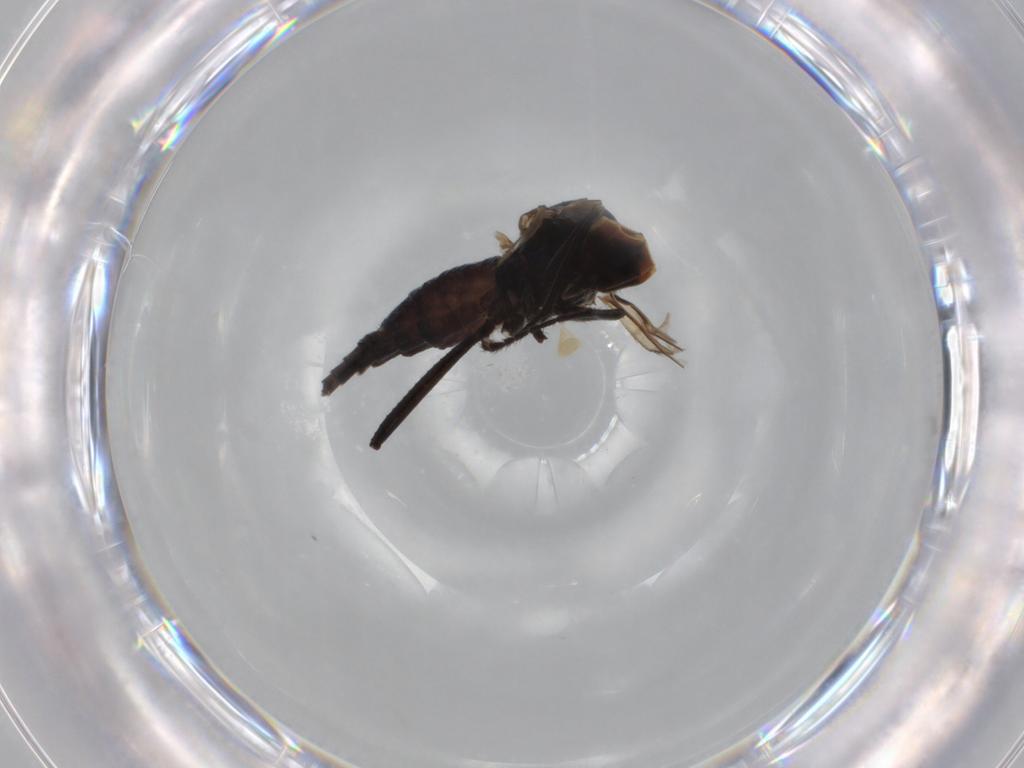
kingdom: Animalia
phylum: Arthropoda
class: Insecta
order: Diptera
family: Hybotidae
